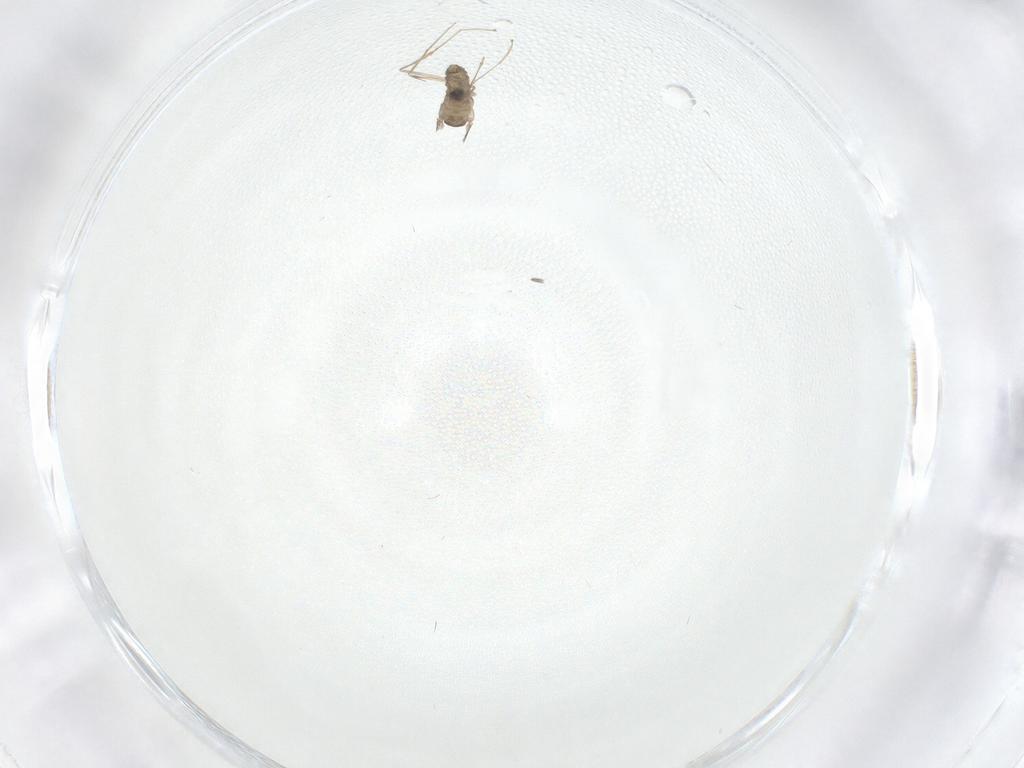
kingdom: Animalia
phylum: Arthropoda
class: Insecta
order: Diptera
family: Cecidomyiidae
